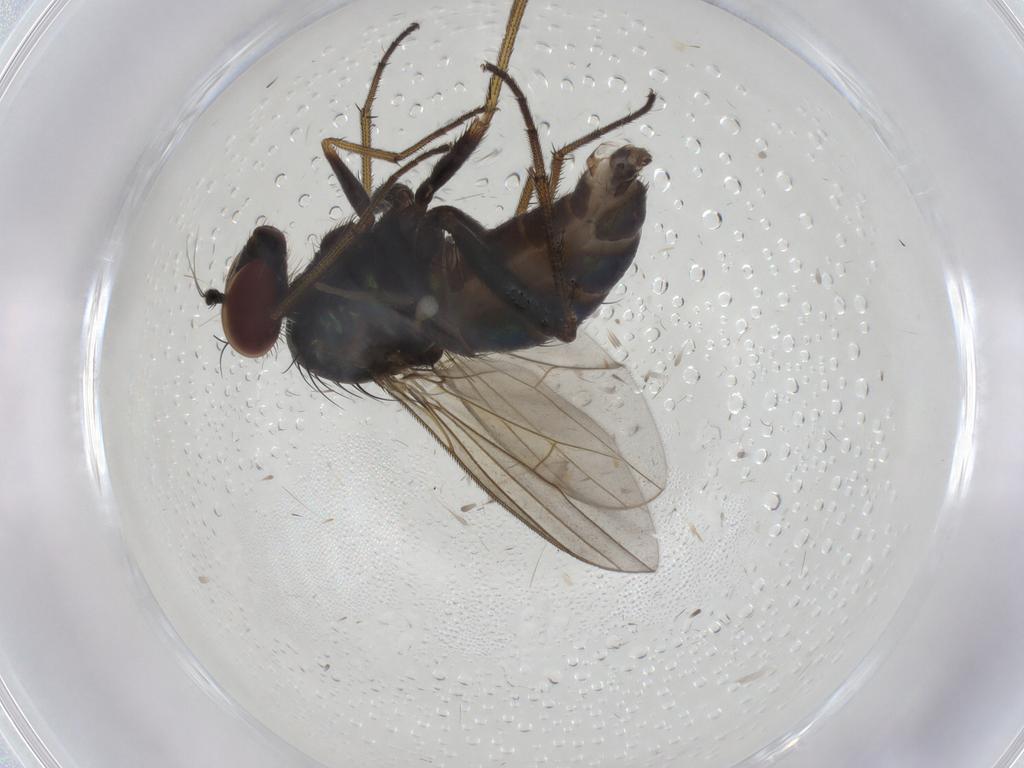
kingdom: Animalia
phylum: Arthropoda
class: Insecta
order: Diptera
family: Dolichopodidae
